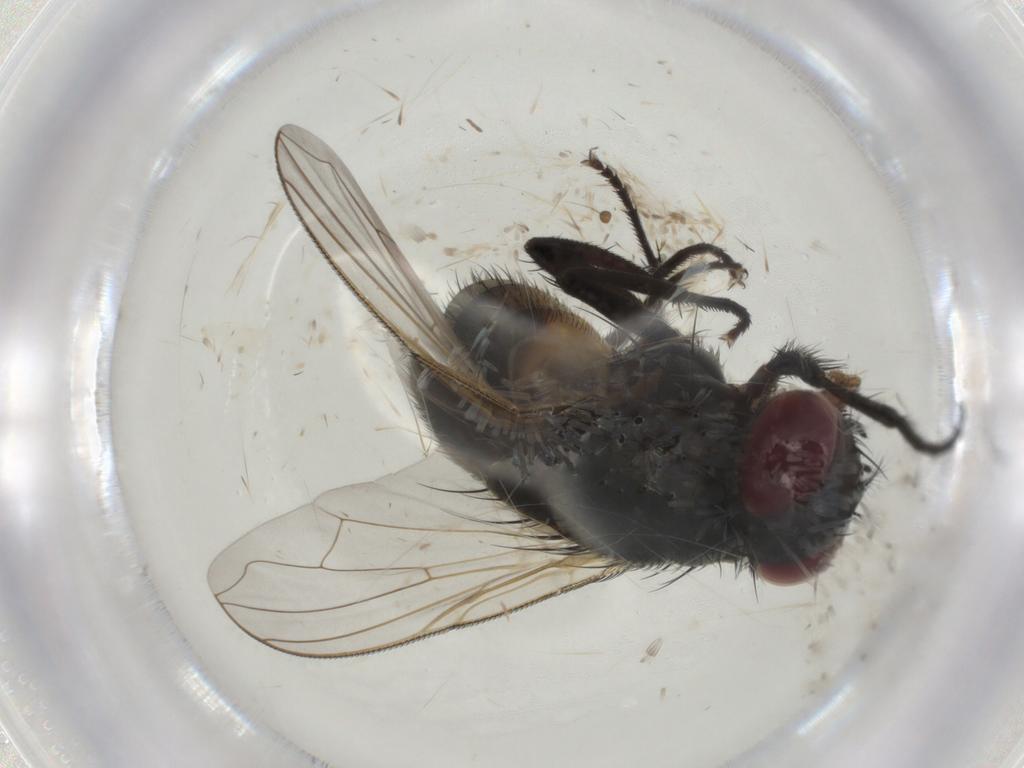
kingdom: Animalia
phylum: Arthropoda
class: Insecta
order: Diptera
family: Muscidae
